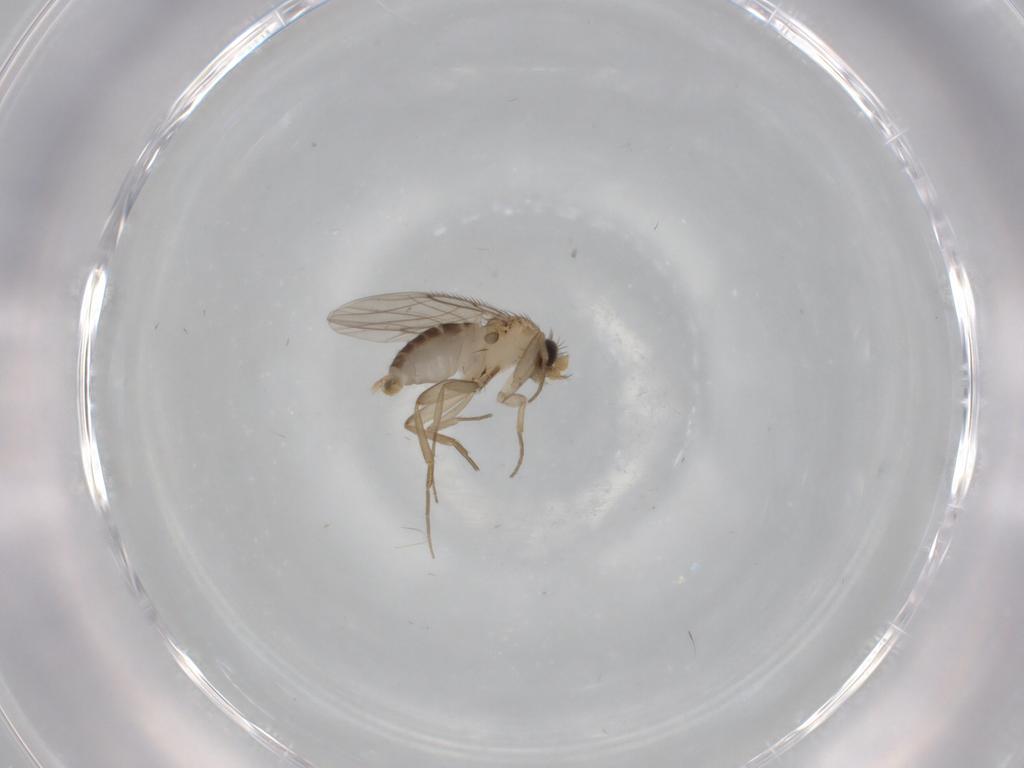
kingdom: Animalia
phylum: Arthropoda
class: Insecta
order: Diptera
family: Phoridae
